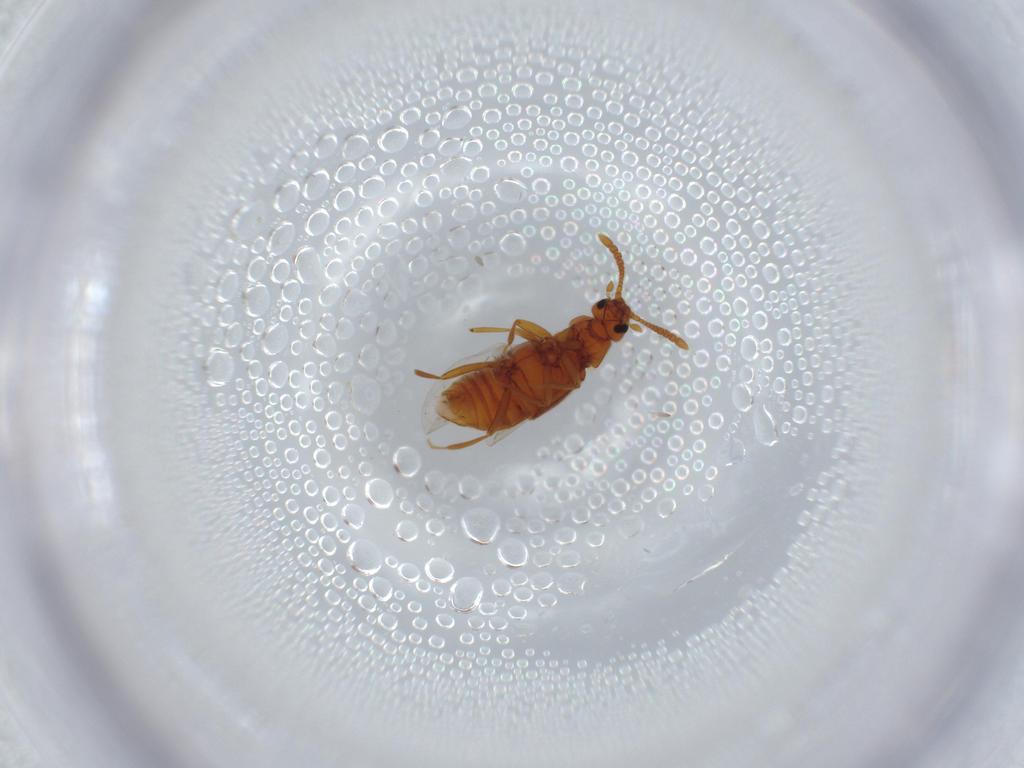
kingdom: Animalia
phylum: Arthropoda
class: Insecta
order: Coleoptera
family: Staphylinidae
